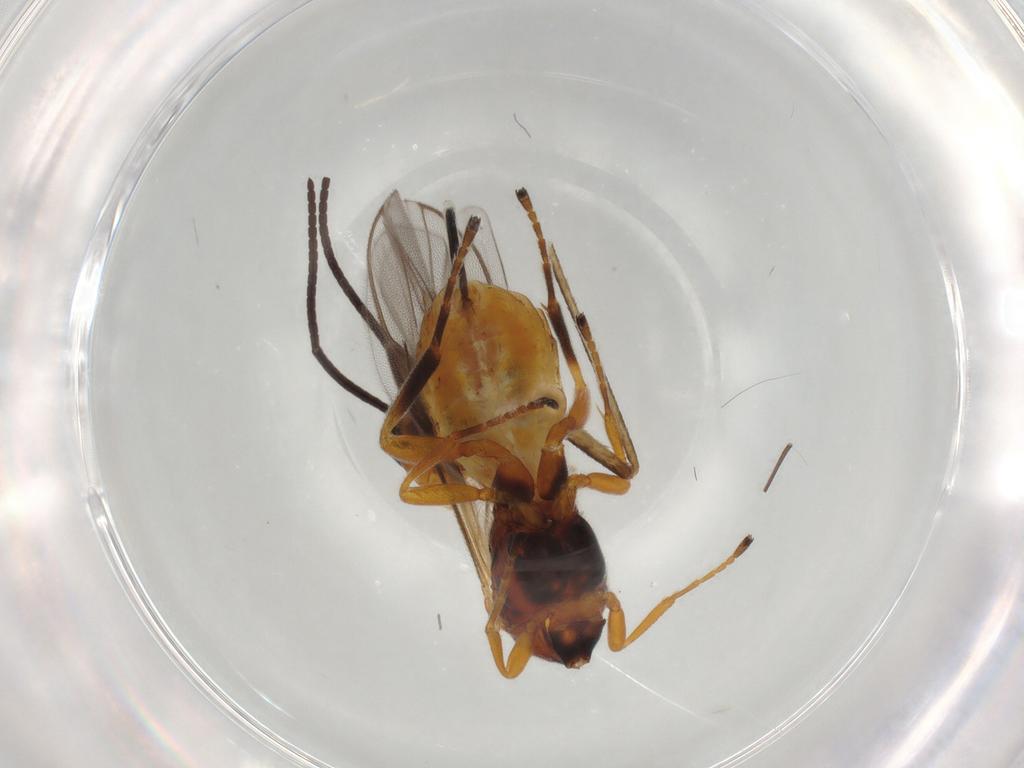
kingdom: Animalia
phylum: Arthropoda
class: Insecta
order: Hymenoptera
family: Braconidae
